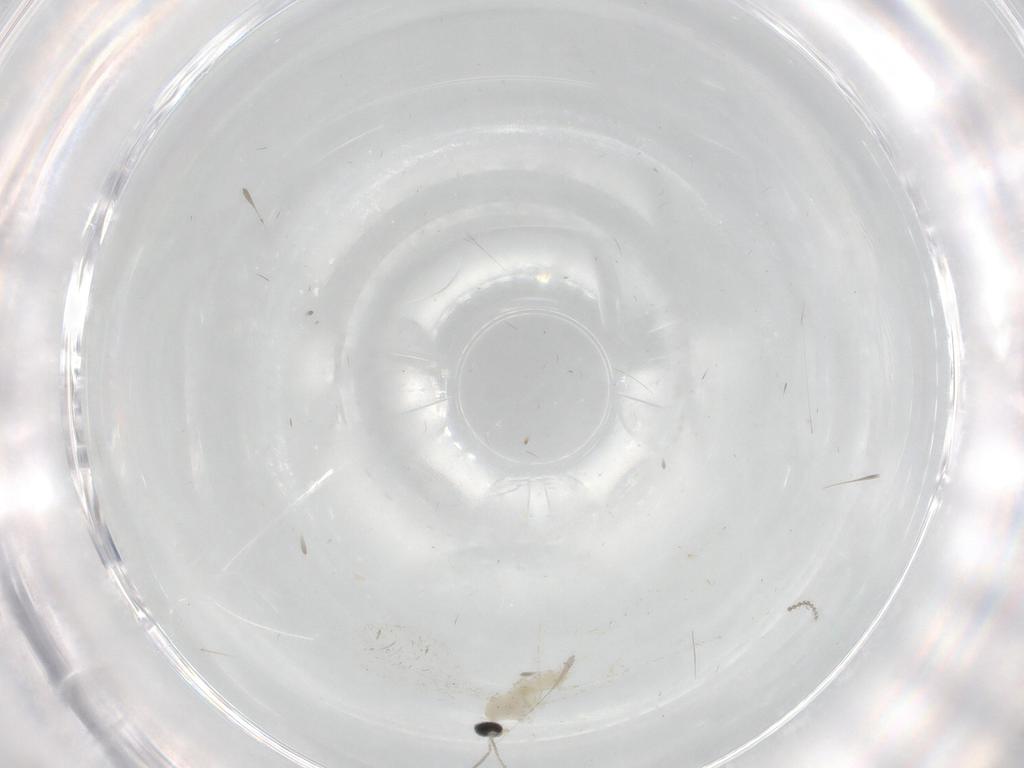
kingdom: Animalia
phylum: Arthropoda
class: Insecta
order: Diptera
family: Cecidomyiidae
